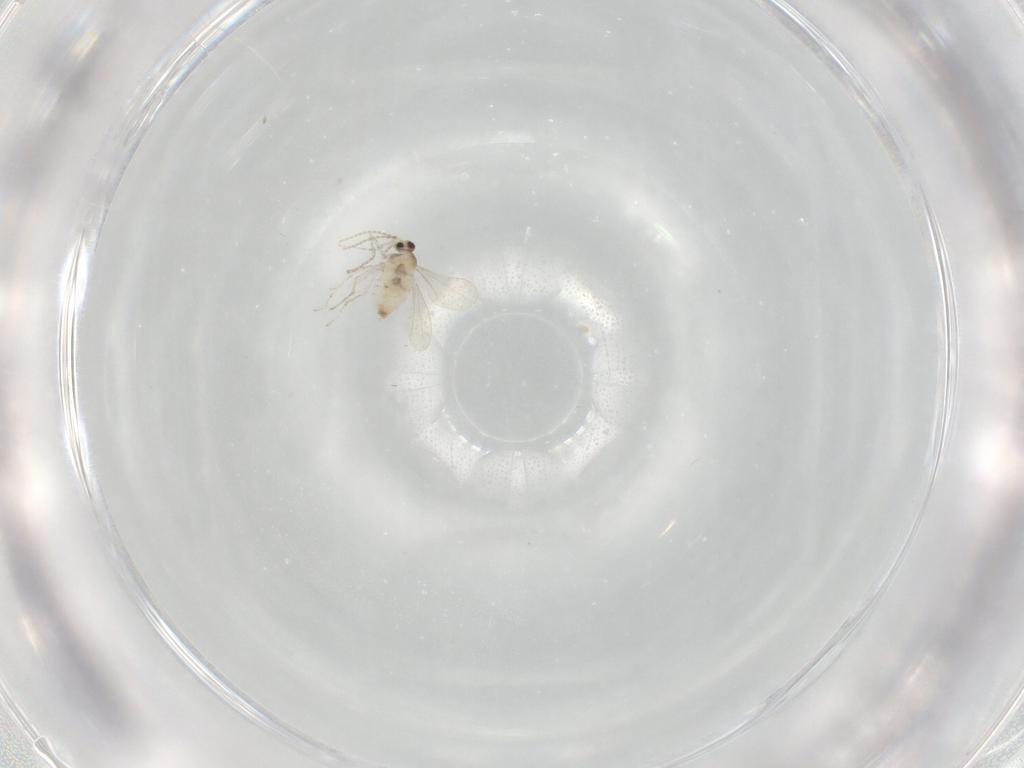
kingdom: Animalia
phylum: Arthropoda
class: Insecta
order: Diptera
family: Cecidomyiidae
